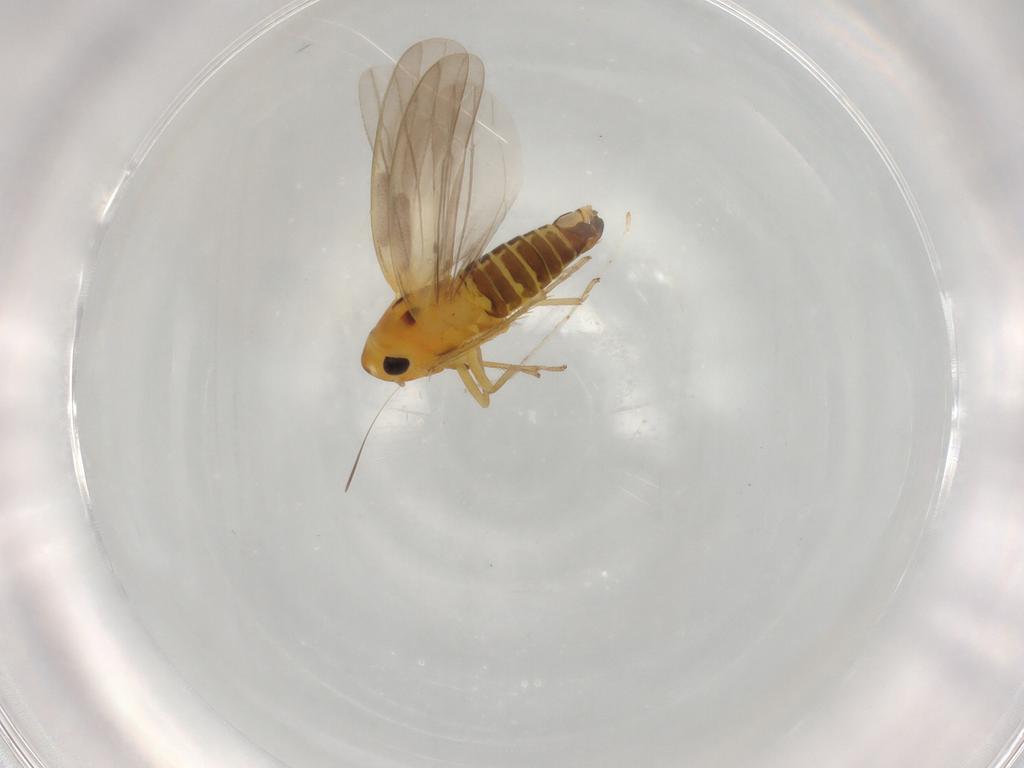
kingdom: Animalia
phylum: Arthropoda
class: Insecta
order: Hemiptera
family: Cicadellidae
